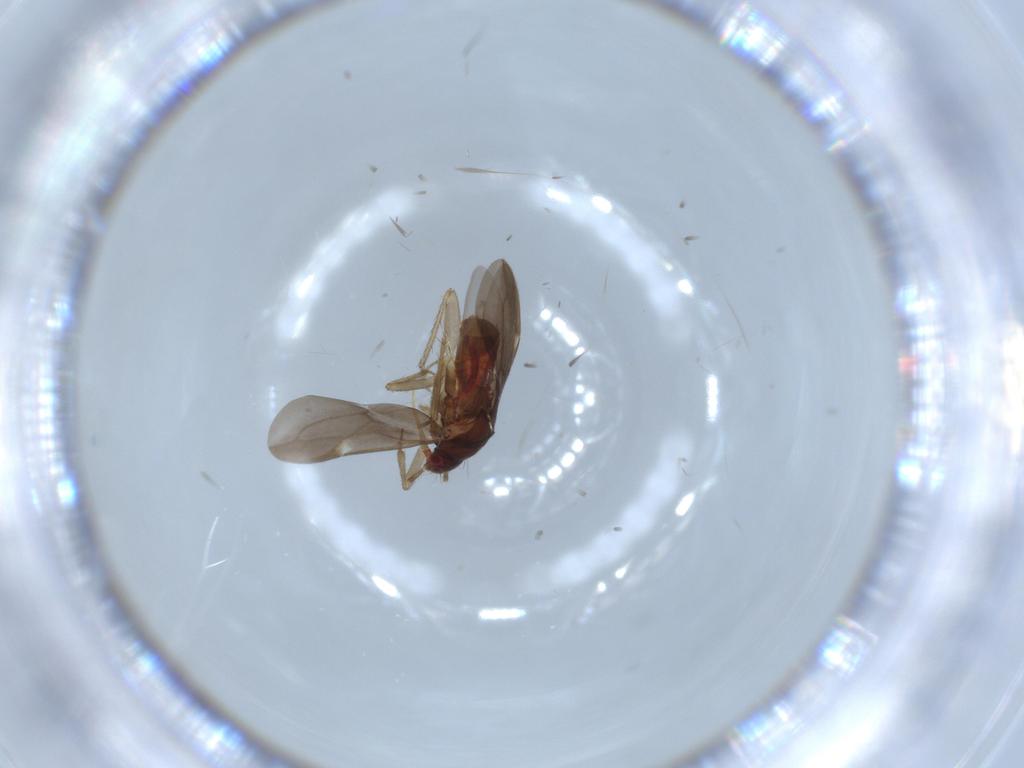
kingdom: Animalia
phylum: Arthropoda
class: Insecta
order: Hemiptera
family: Ceratocombidae
